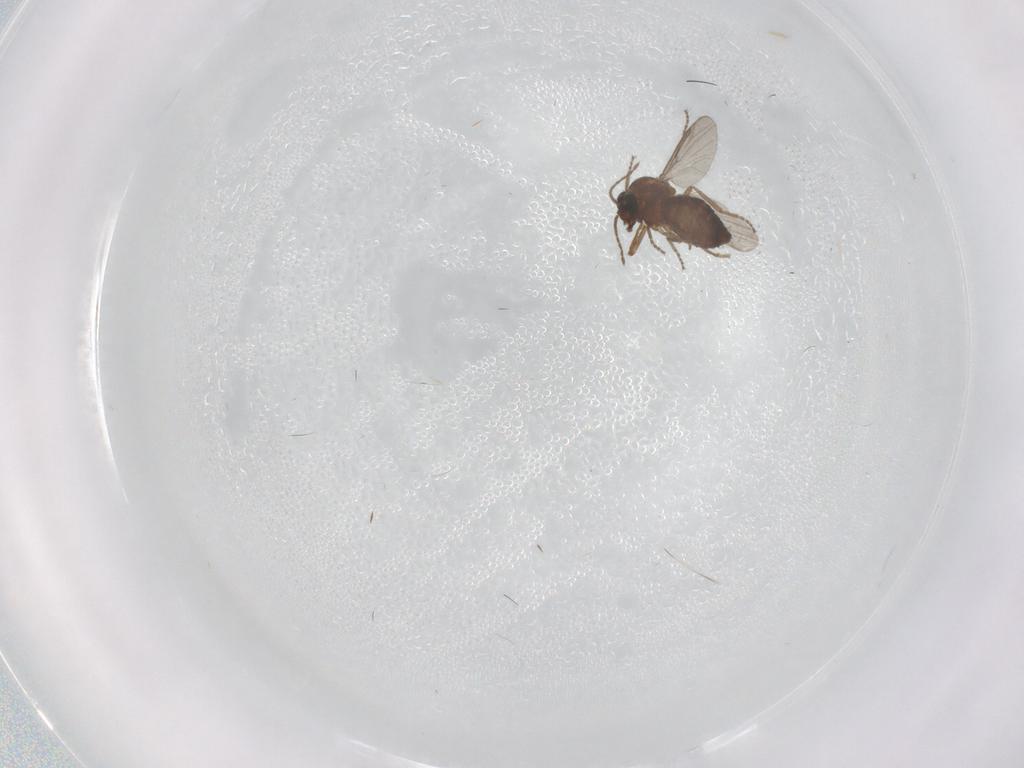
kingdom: Animalia
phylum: Arthropoda
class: Insecta
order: Diptera
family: Ceratopogonidae
